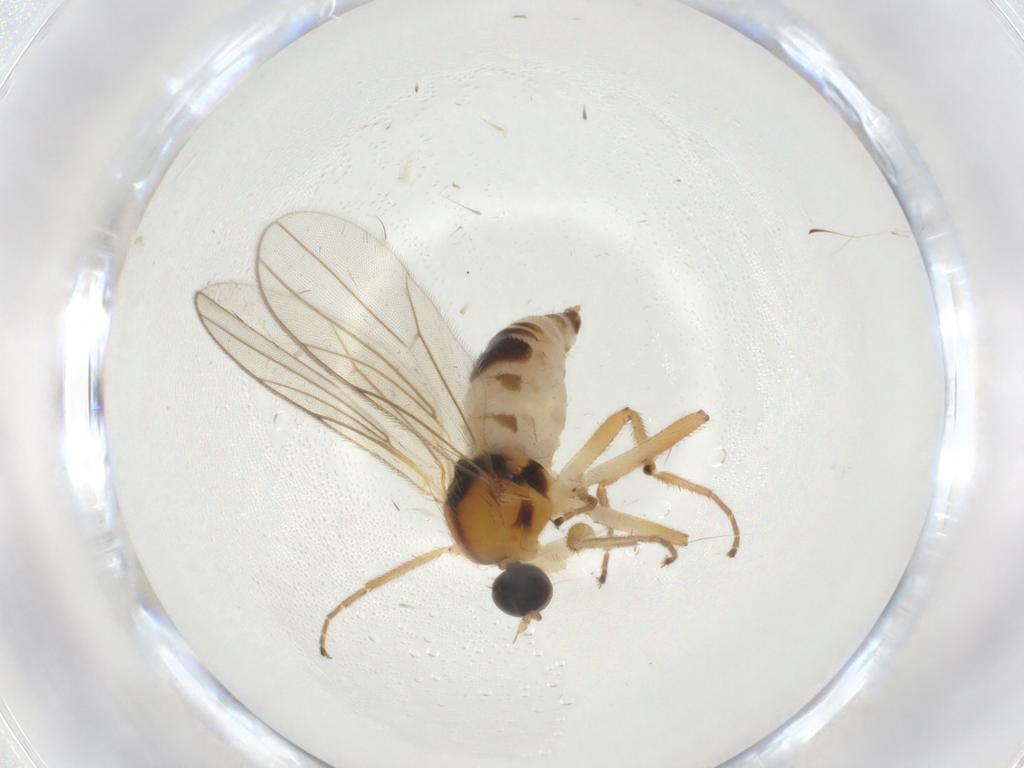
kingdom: Animalia
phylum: Arthropoda
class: Insecta
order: Diptera
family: Hybotidae
